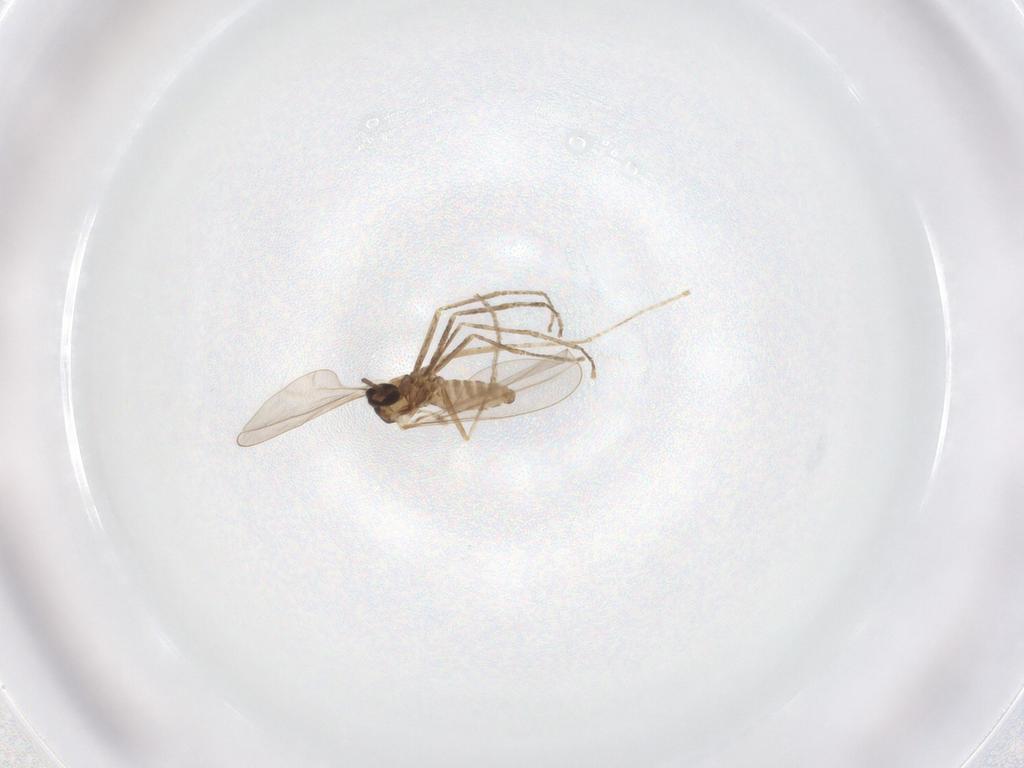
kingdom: Animalia
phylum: Arthropoda
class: Insecta
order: Diptera
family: Cecidomyiidae
